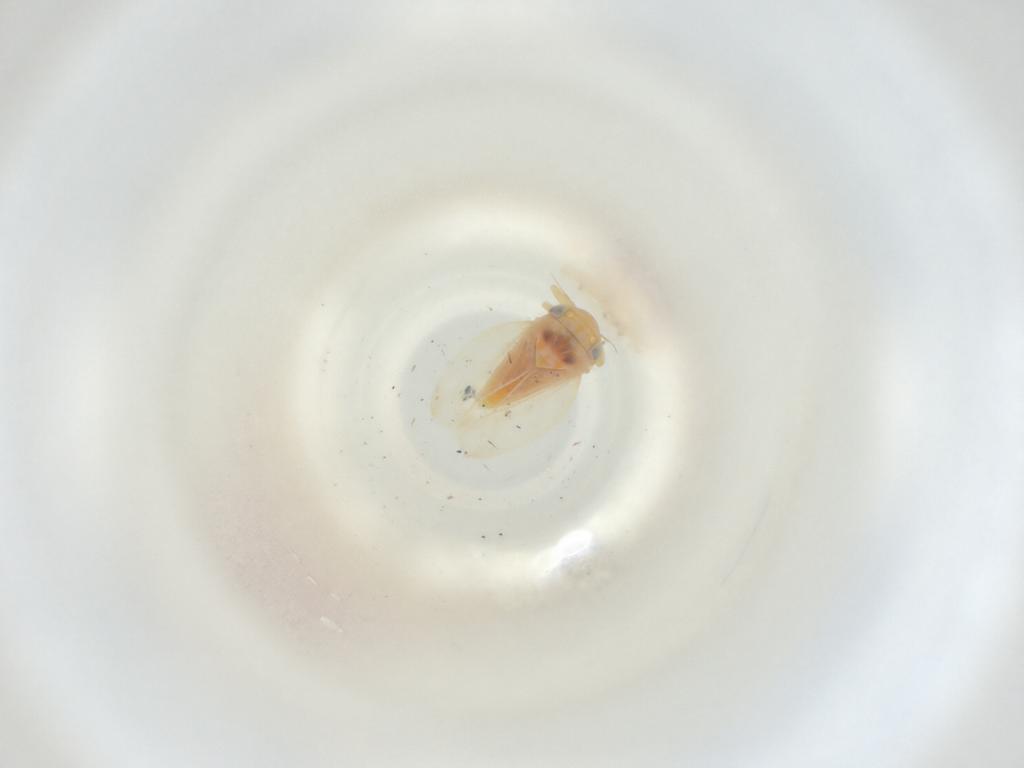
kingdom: Animalia
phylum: Arthropoda
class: Insecta
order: Hemiptera
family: Cicadellidae
